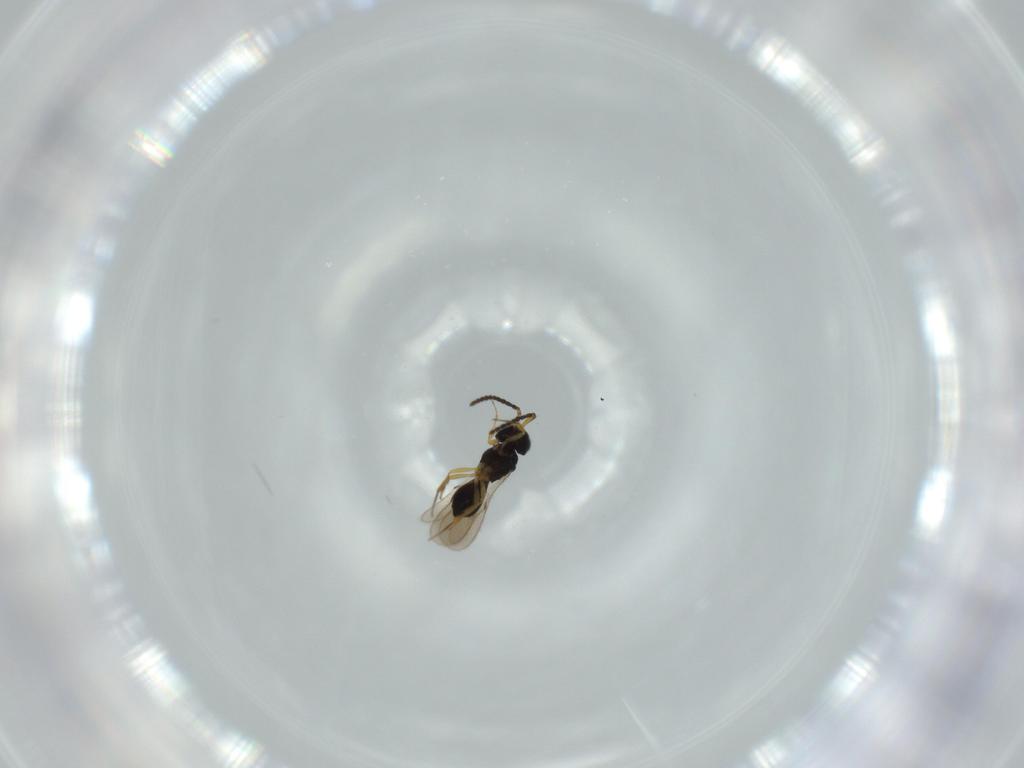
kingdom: Animalia
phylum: Arthropoda
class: Insecta
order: Hymenoptera
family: Scelionidae
